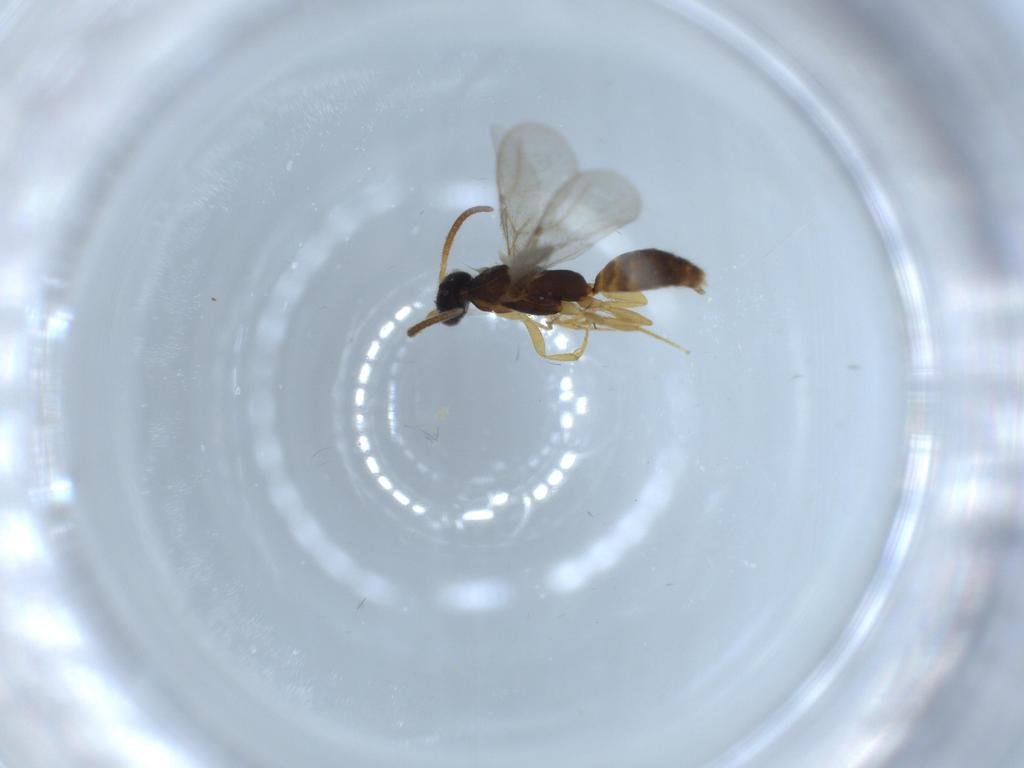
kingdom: Animalia
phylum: Arthropoda
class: Insecta
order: Hymenoptera
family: Bethylidae
